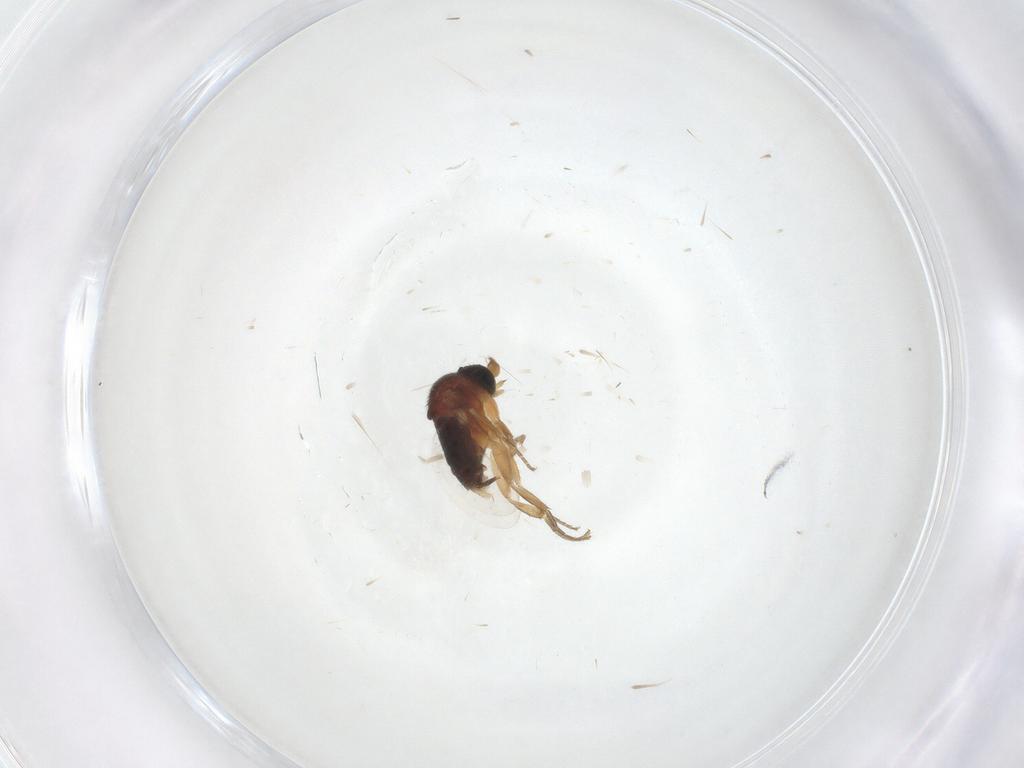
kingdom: Animalia
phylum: Arthropoda
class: Insecta
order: Diptera
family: Phoridae
